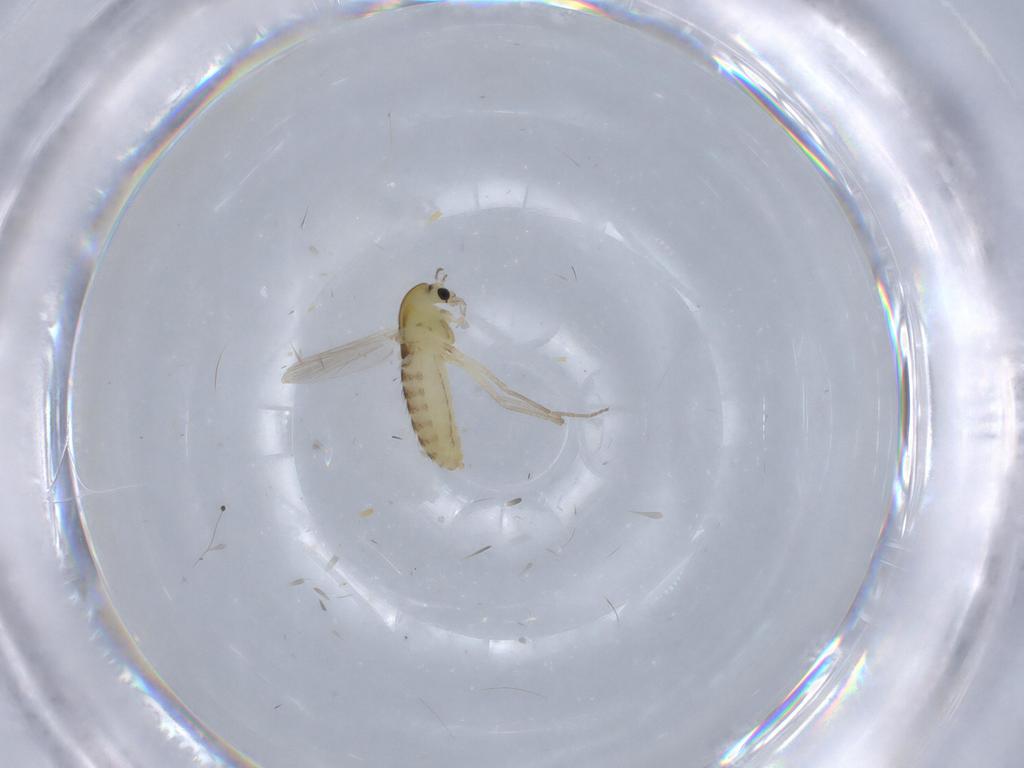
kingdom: Animalia
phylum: Arthropoda
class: Insecta
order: Diptera
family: Chironomidae
